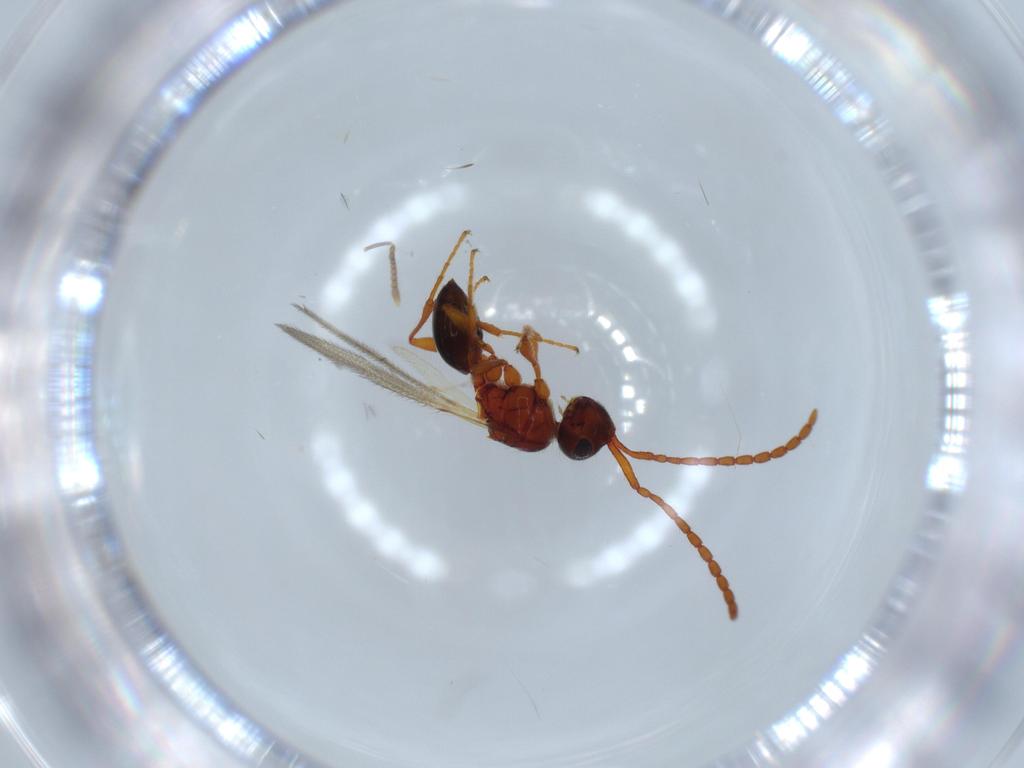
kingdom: Animalia
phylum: Arthropoda
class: Insecta
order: Hymenoptera
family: Diapriidae
